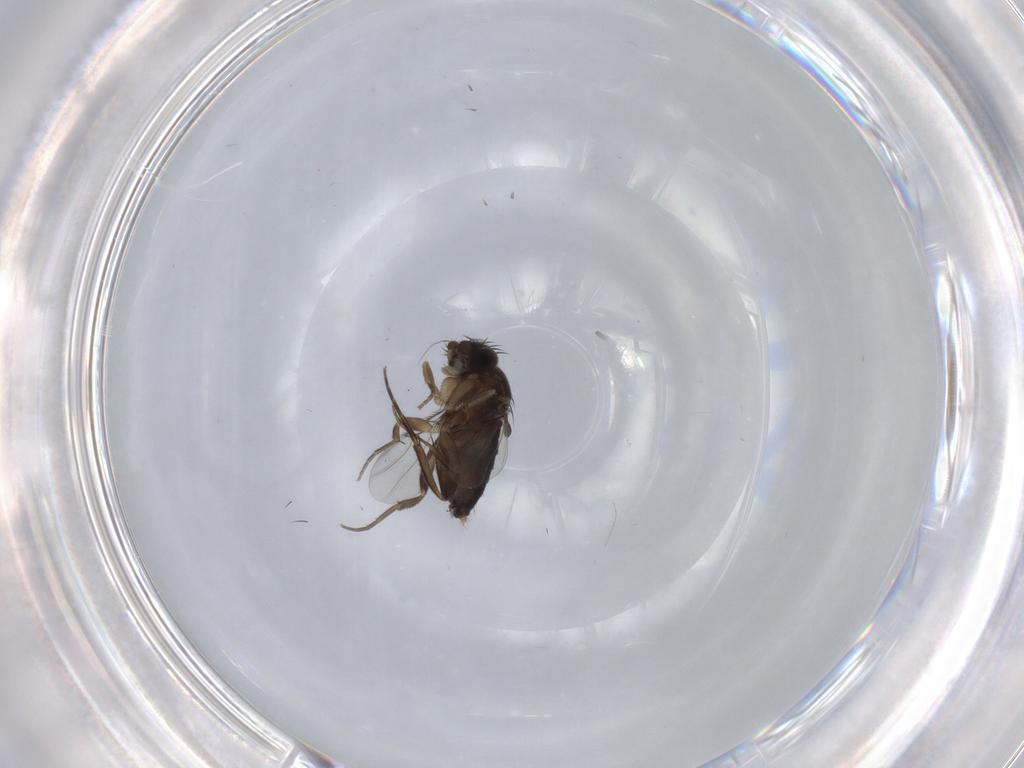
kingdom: Animalia
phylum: Arthropoda
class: Insecta
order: Diptera
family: Phoridae
